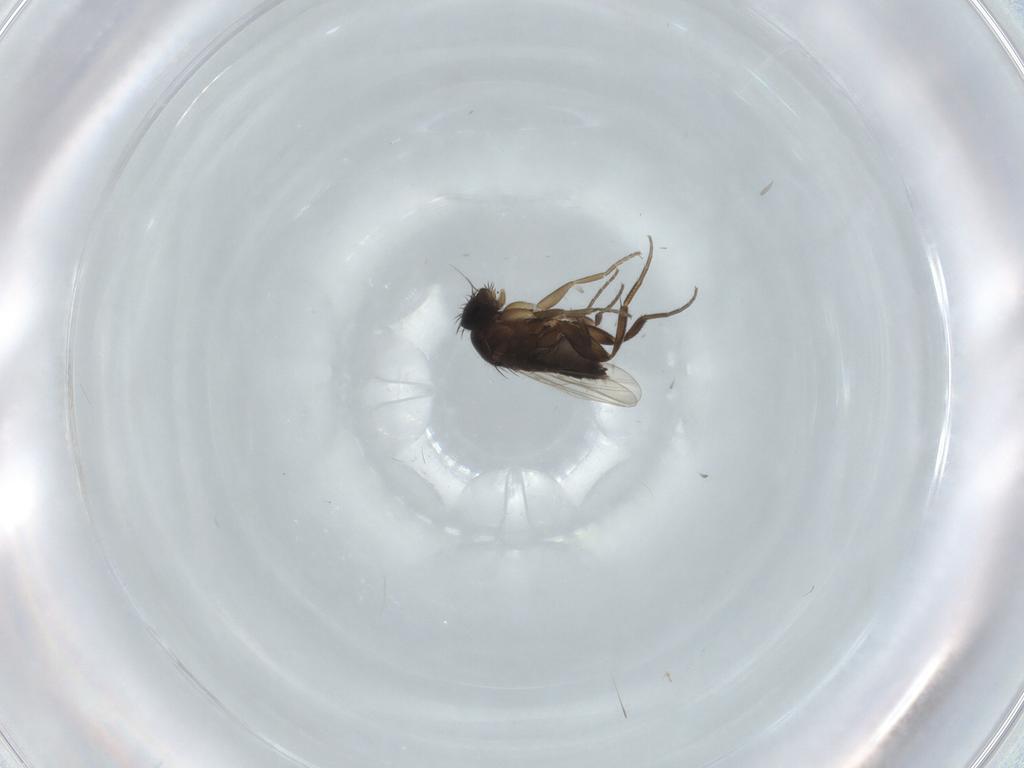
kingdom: Animalia
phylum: Arthropoda
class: Insecta
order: Diptera
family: Phoridae
